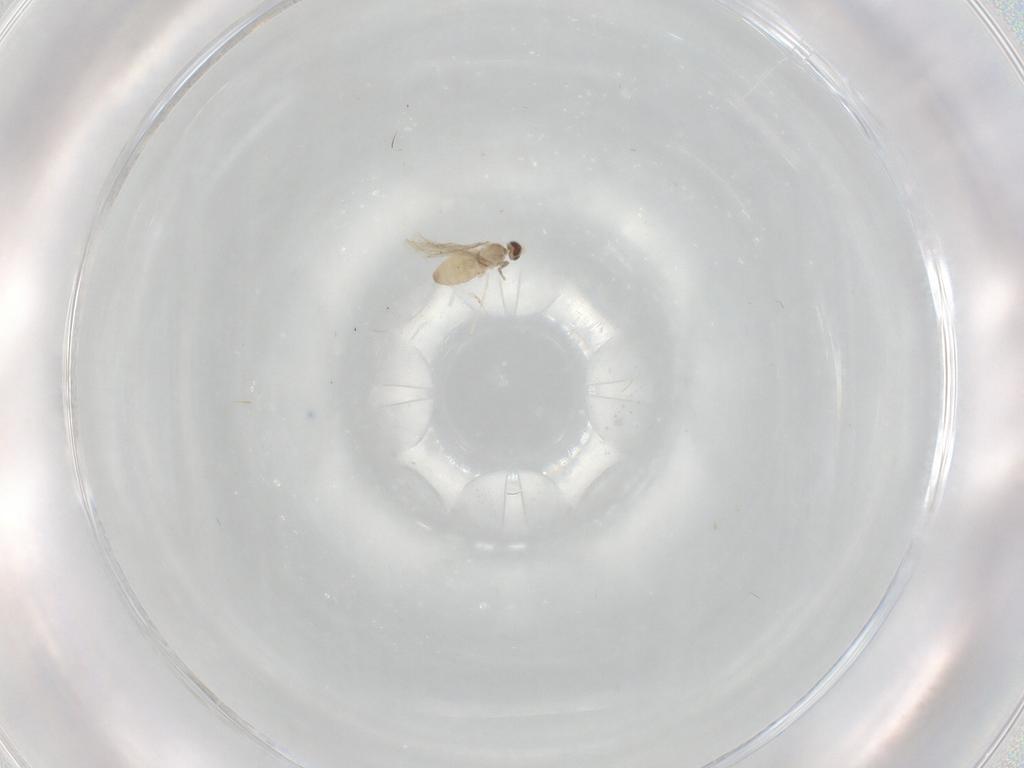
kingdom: Animalia
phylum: Arthropoda
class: Insecta
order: Diptera
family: Cecidomyiidae
